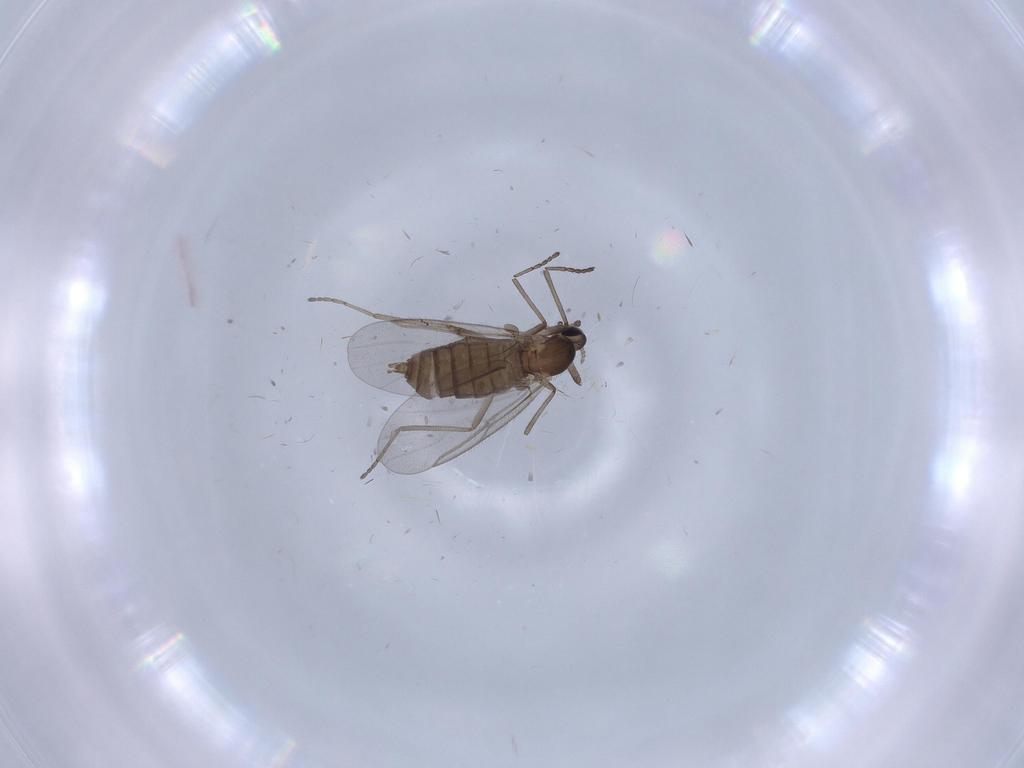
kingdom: Animalia
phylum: Arthropoda
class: Insecta
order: Diptera
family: Cecidomyiidae
